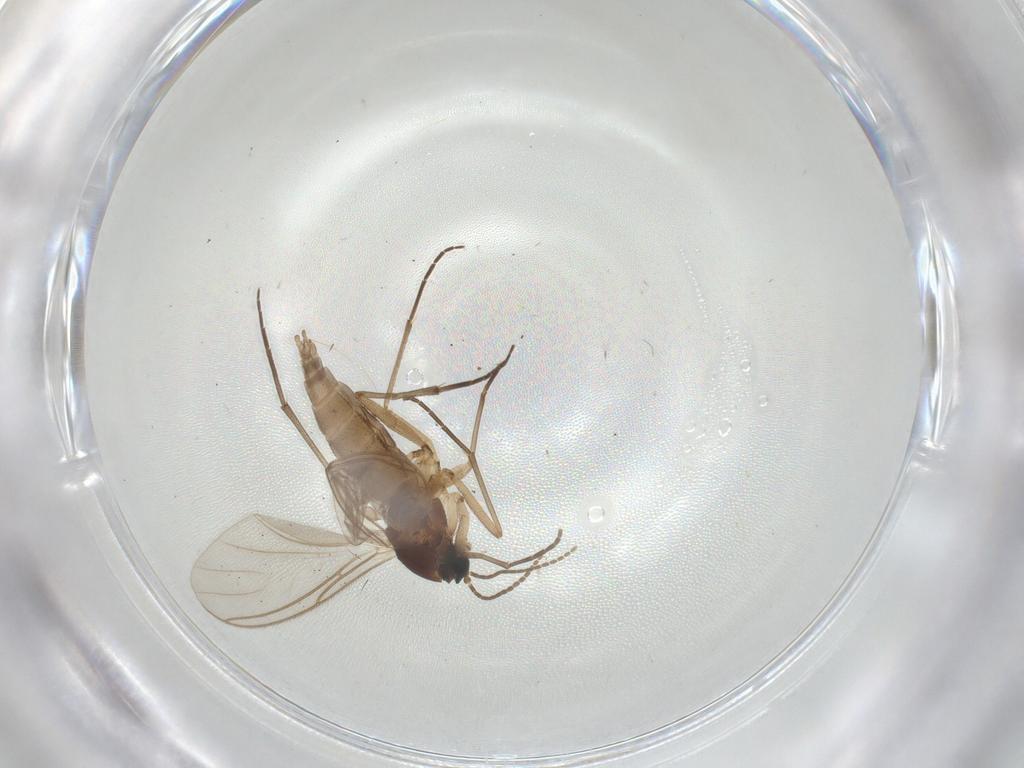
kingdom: Animalia
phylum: Arthropoda
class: Insecta
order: Diptera
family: Sciaridae
